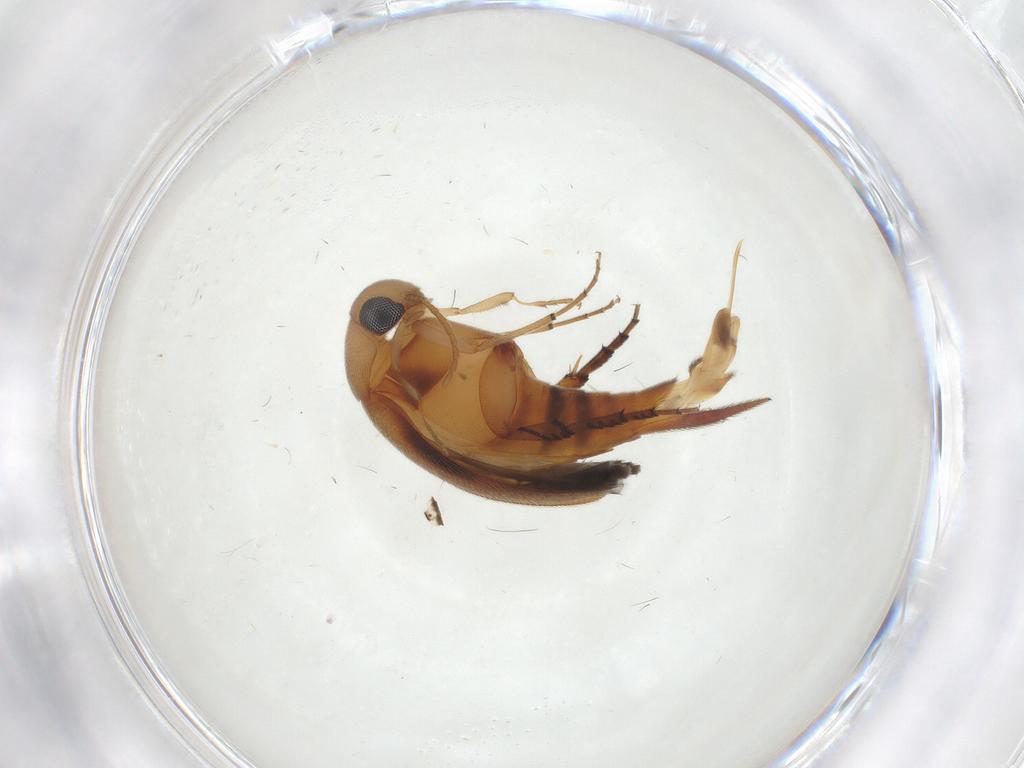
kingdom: Animalia
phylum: Arthropoda
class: Insecta
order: Coleoptera
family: Mordellidae
